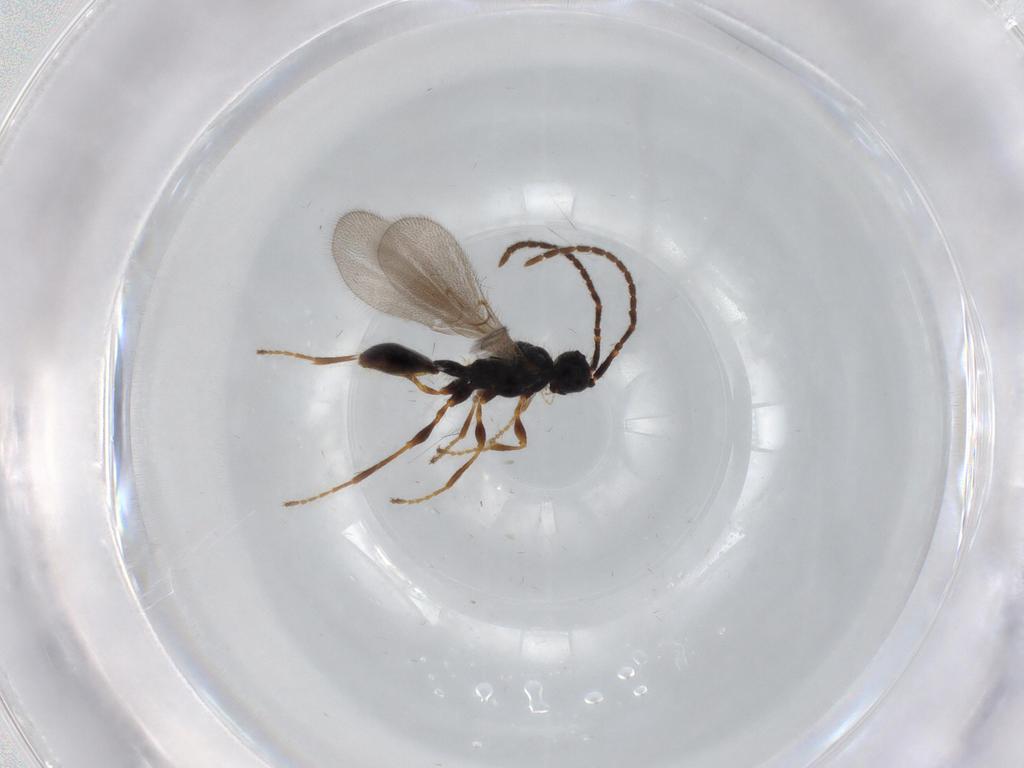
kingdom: Animalia
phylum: Arthropoda
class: Insecta
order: Hymenoptera
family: Diapriidae
